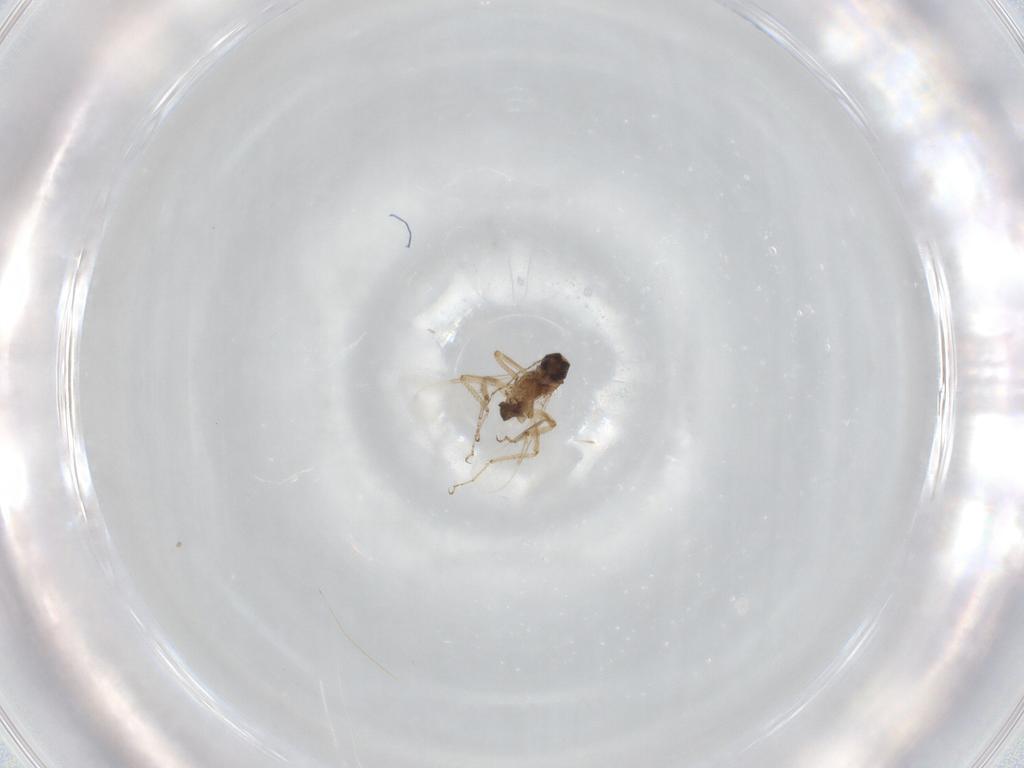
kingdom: Animalia
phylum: Arthropoda
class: Insecta
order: Diptera
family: Ceratopogonidae
